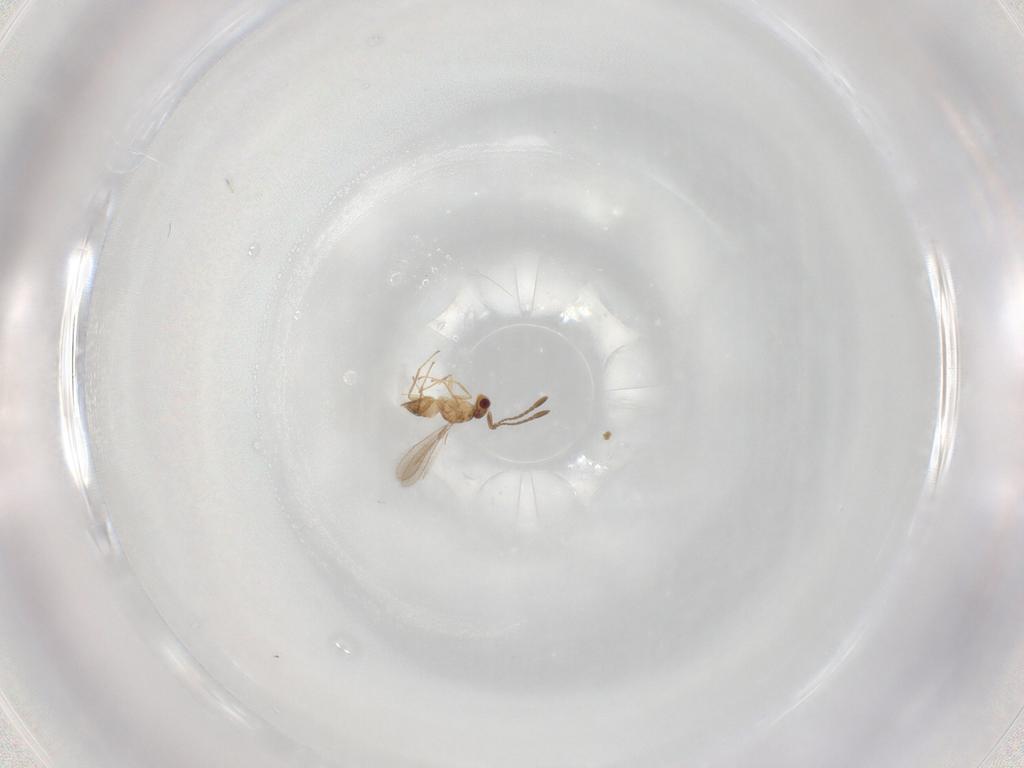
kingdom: Animalia
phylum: Arthropoda
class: Insecta
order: Hymenoptera
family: Mymaridae
